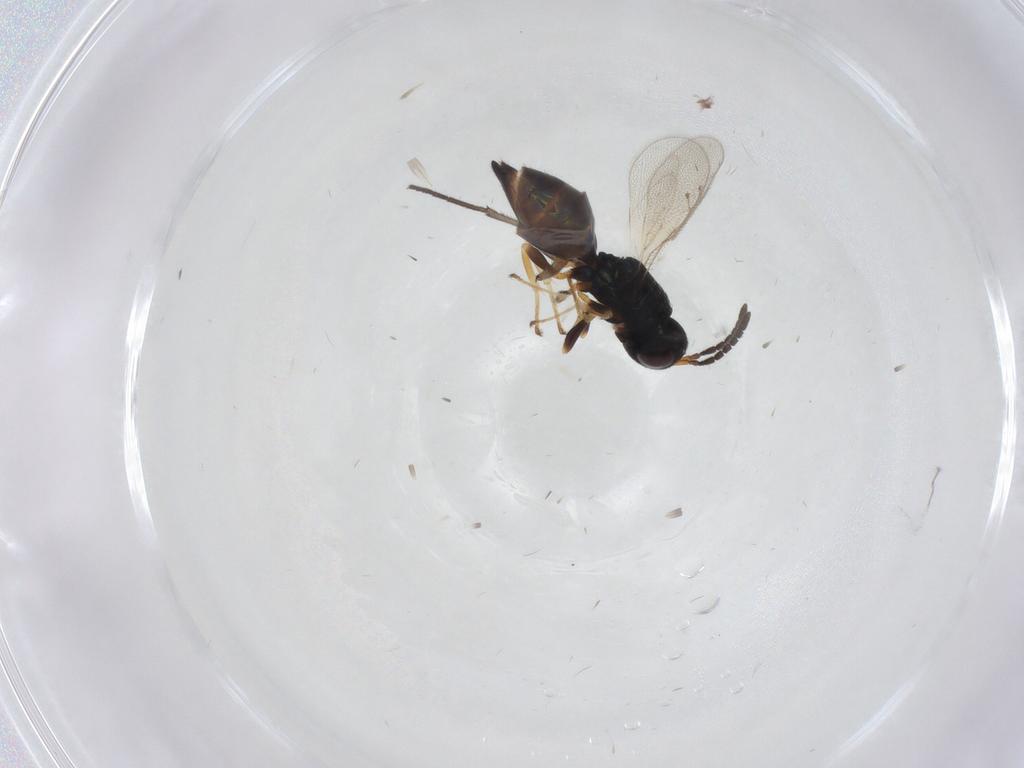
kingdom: Animalia
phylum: Arthropoda
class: Insecta
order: Hymenoptera
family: Pteromalidae
